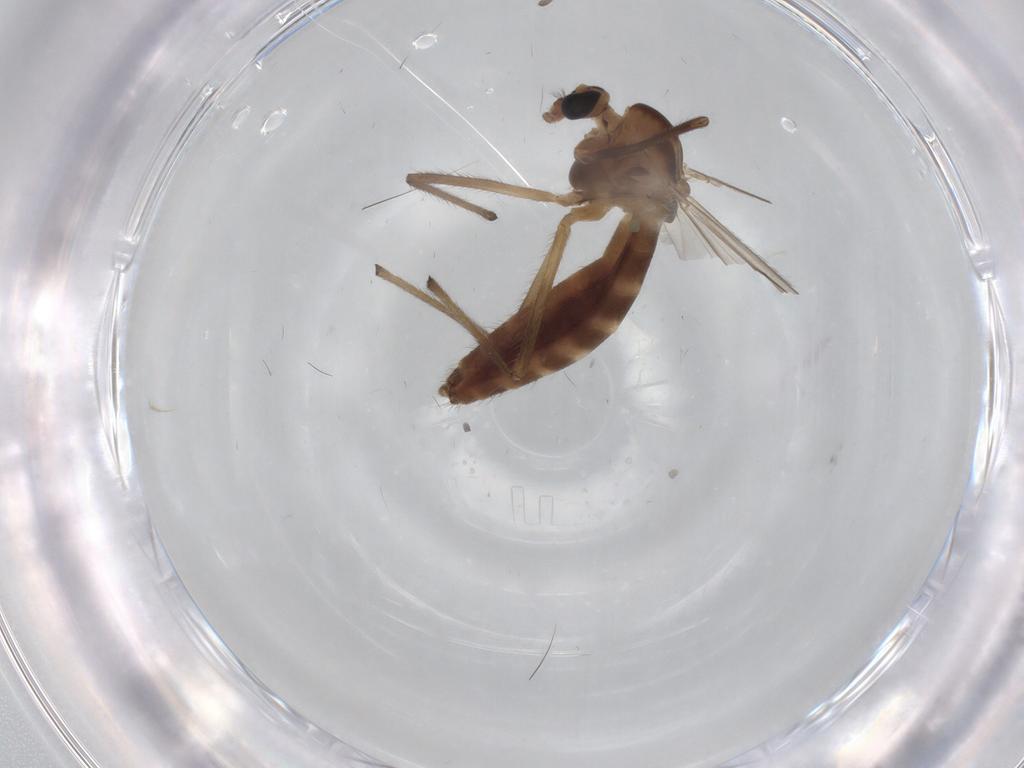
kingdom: Animalia
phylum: Arthropoda
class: Insecta
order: Diptera
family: Chironomidae
